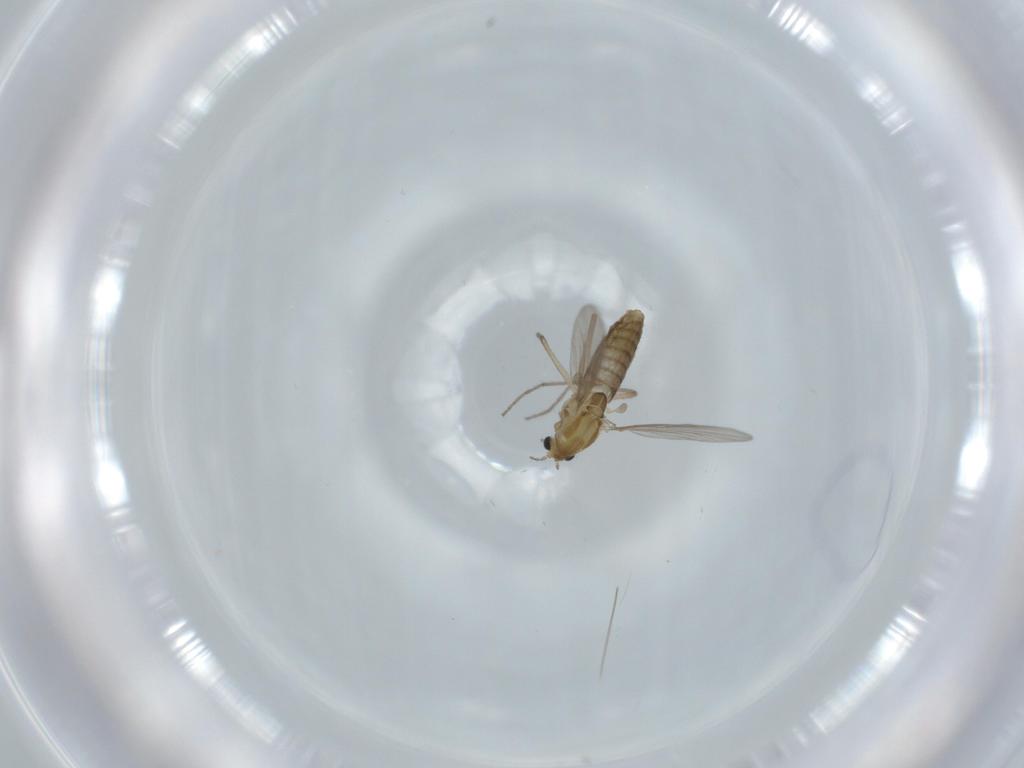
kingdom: Animalia
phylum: Arthropoda
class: Insecta
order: Diptera
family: Chironomidae
